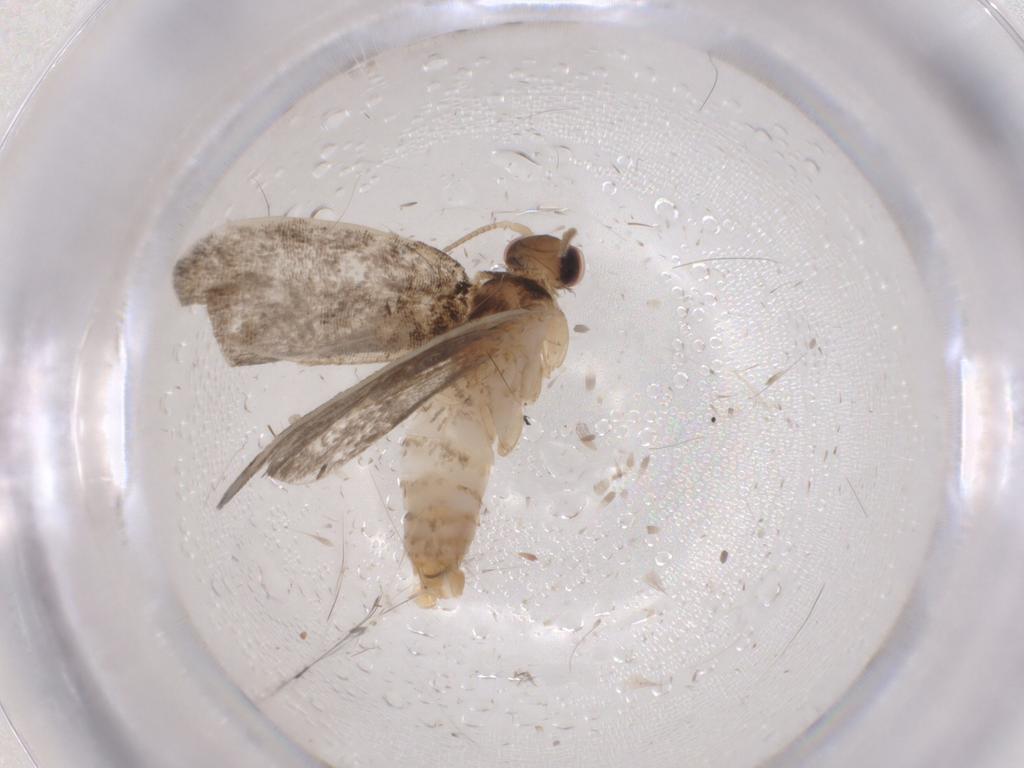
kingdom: Animalia
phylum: Arthropoda
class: Insecta
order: Lepidoptera
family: Tineidae
